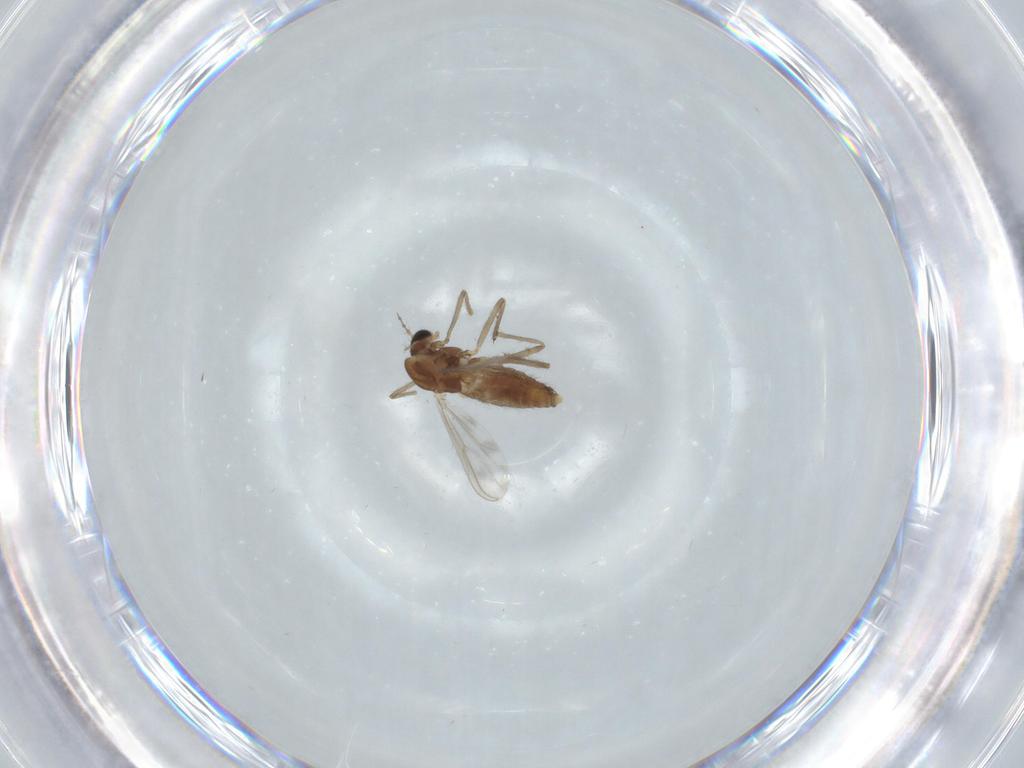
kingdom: Animalia
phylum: Arthropoda
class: Insecta
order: Diptera
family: Chironomidae
